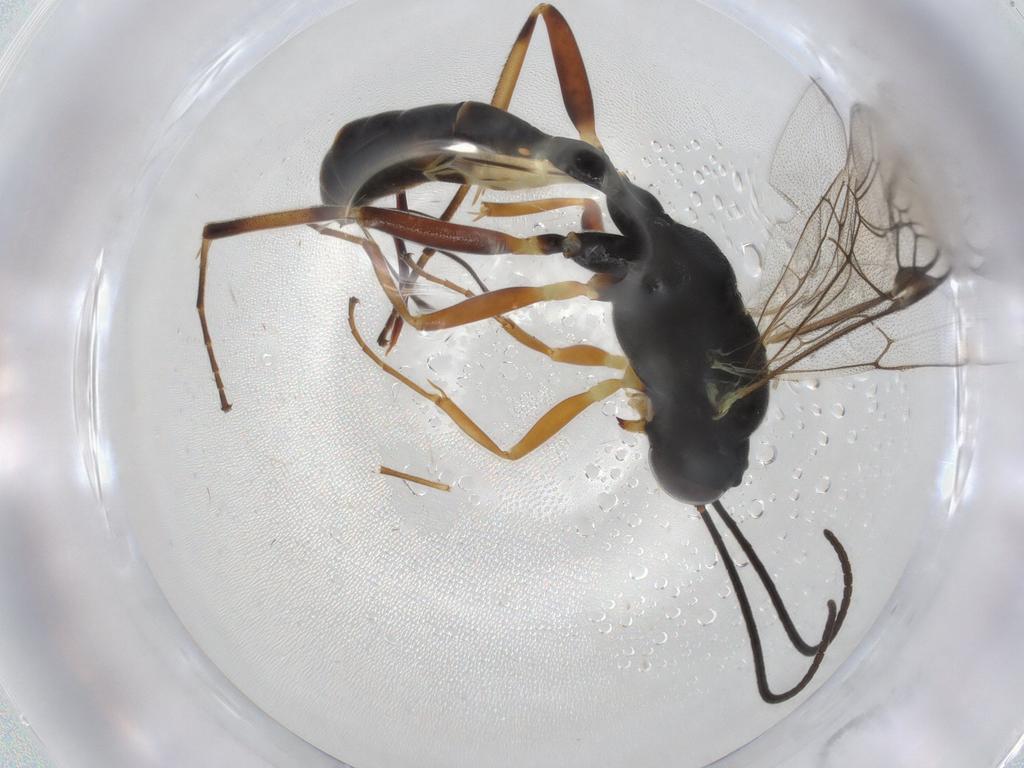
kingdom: Animalia
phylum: Arthropoda
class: Insecta
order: Hymenoptera
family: Ichneumonidae
